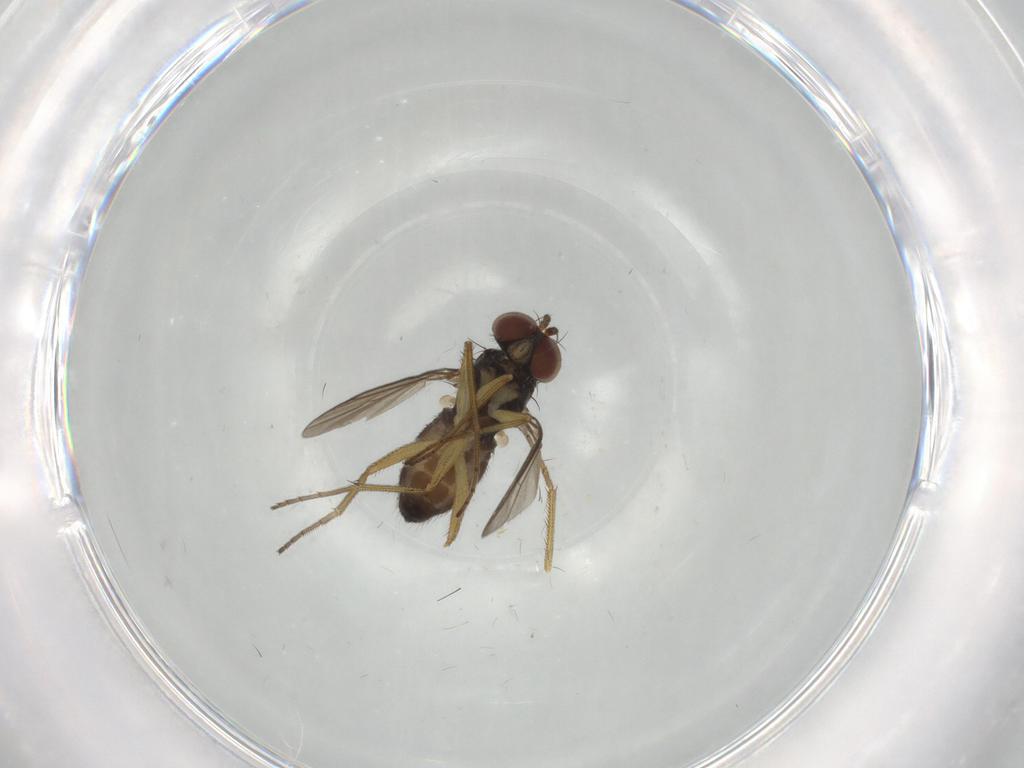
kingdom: Animalia
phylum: Arthropoda
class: Insecta
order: Diptera
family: Dolichopodidae
